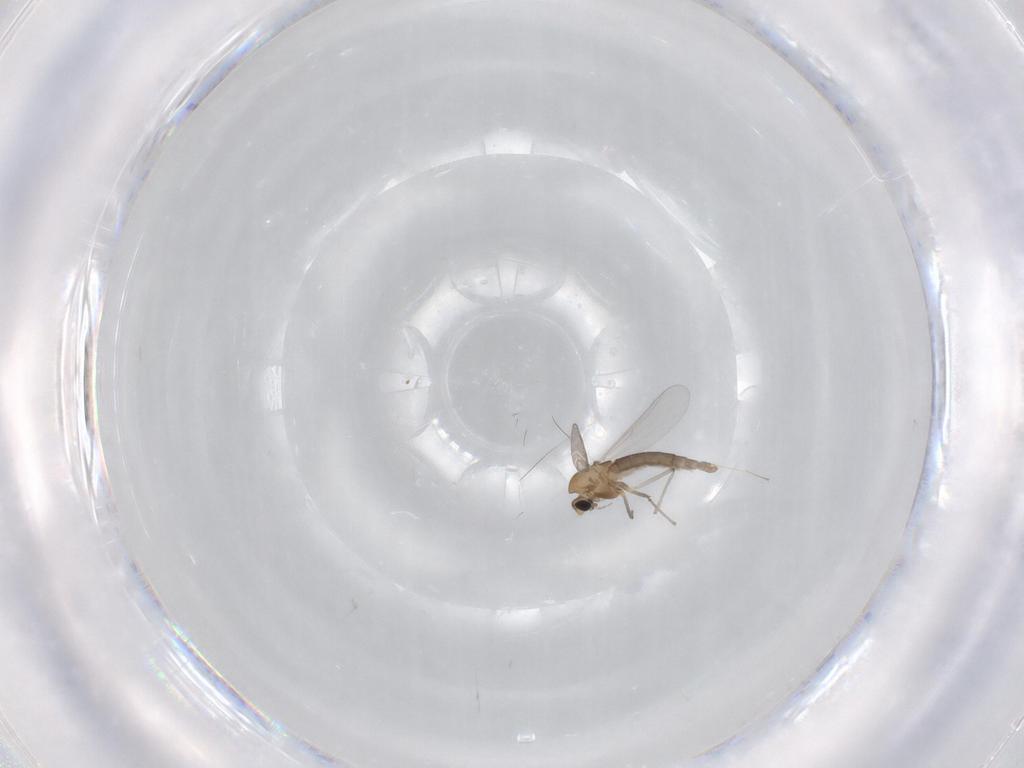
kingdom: Animalia
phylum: Arthropoda
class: Insecta
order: Diptera
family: Chironomidae
